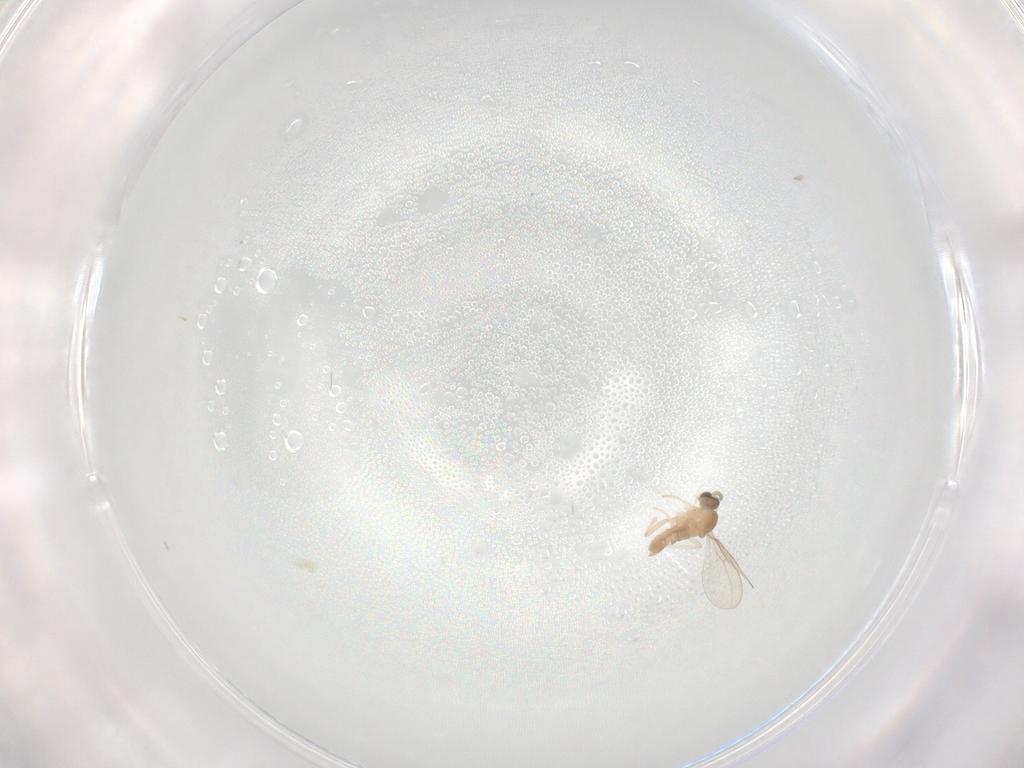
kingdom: Animalia
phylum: Arthropoda
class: Insecta
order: Diptera
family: Cecidomyiidae
